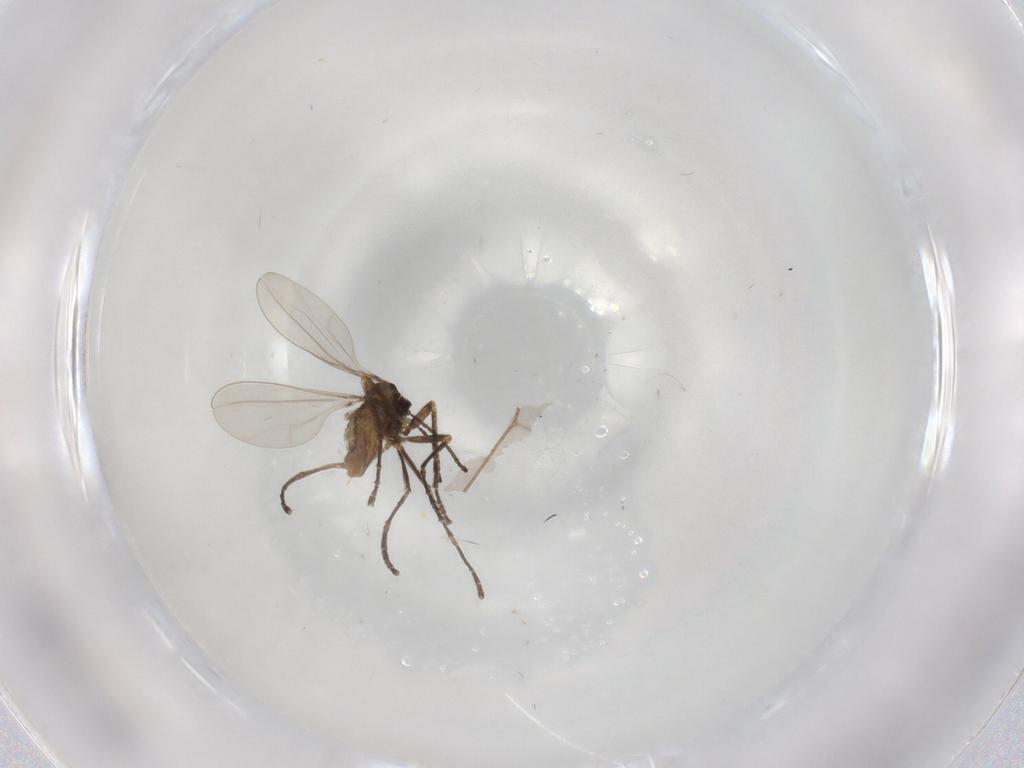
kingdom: Animalia
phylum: Arthropoda
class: Insecta
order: Diptera
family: Cecidomyiidae
